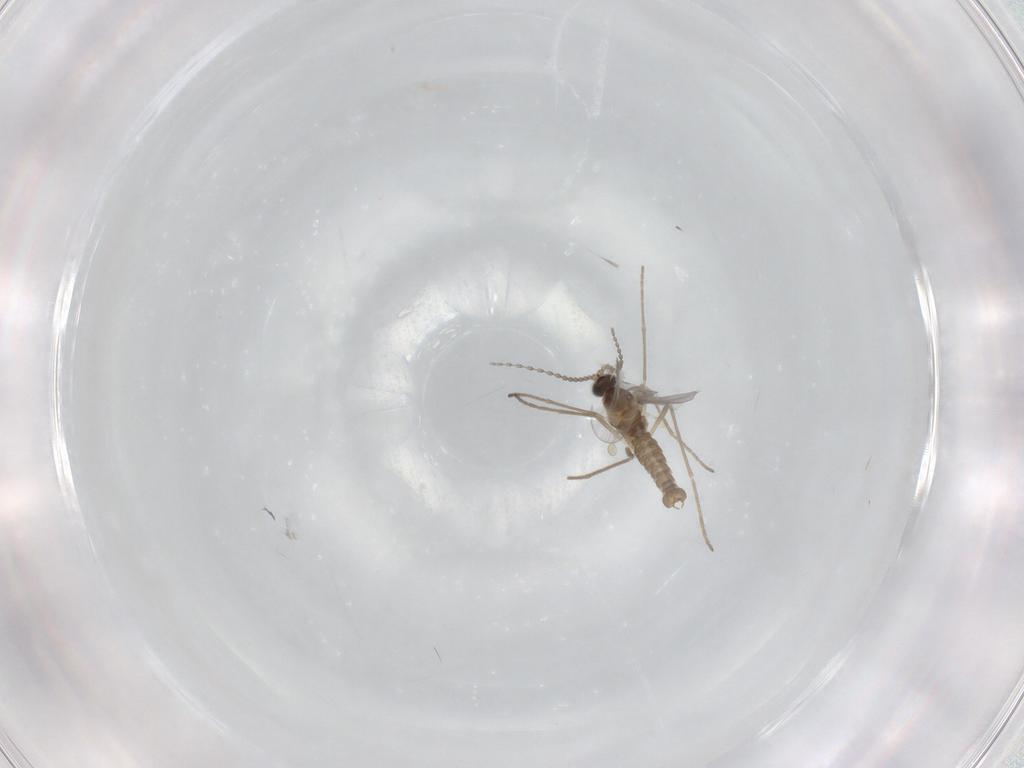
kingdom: Animalia
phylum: Arthropoda
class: Insecta
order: Diptera
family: Cecidomyiidae
